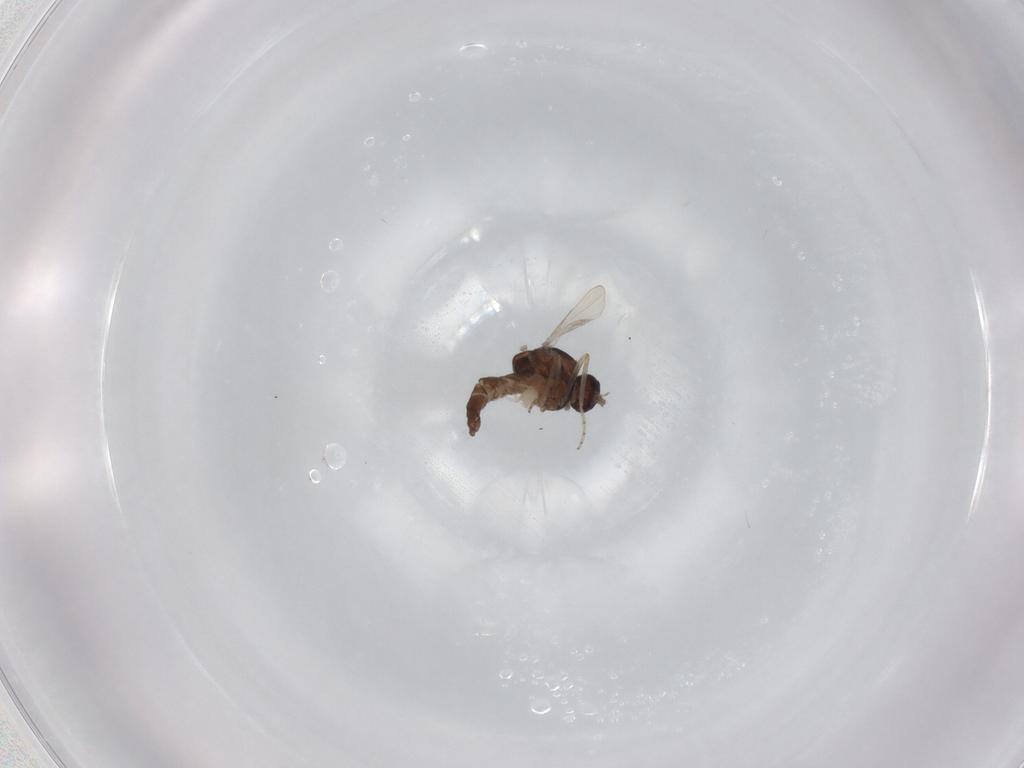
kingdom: Animalia
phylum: Arthropoda
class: Insecta
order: Diptera
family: Ceratopogonidae
